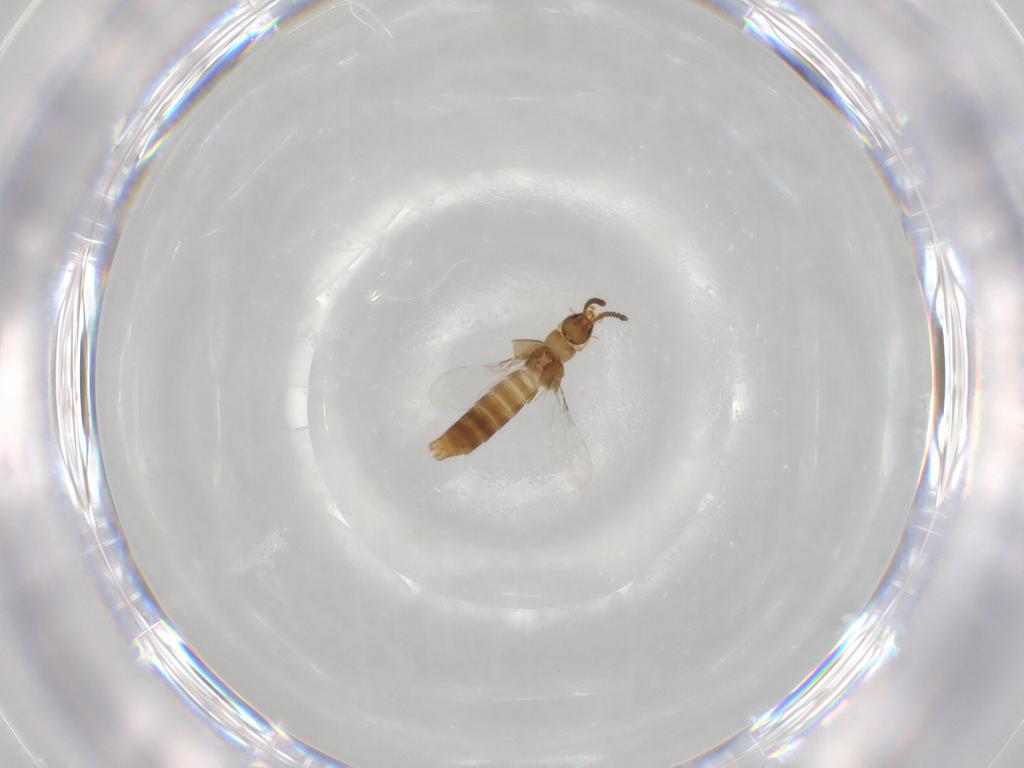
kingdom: Animalia
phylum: Arthropoda
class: Insecta
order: Coleoptera
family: Staphylinidae
